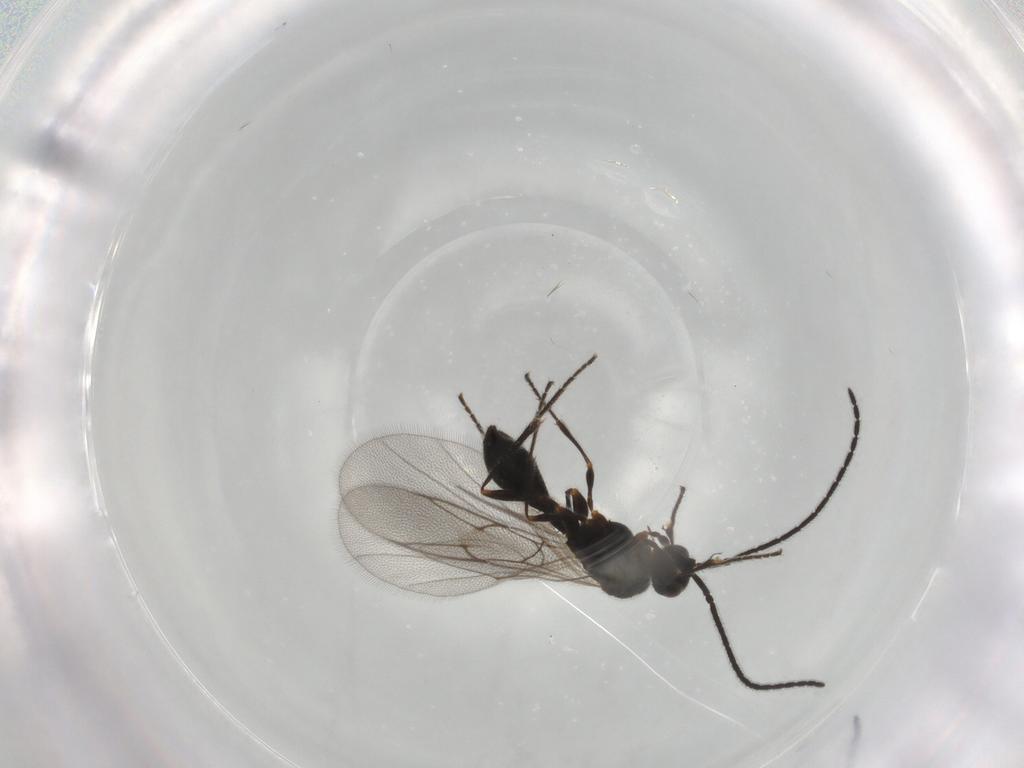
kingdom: Animalia
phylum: Arthropoda
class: Insecta
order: Hymenoptera
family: Diapriidae
